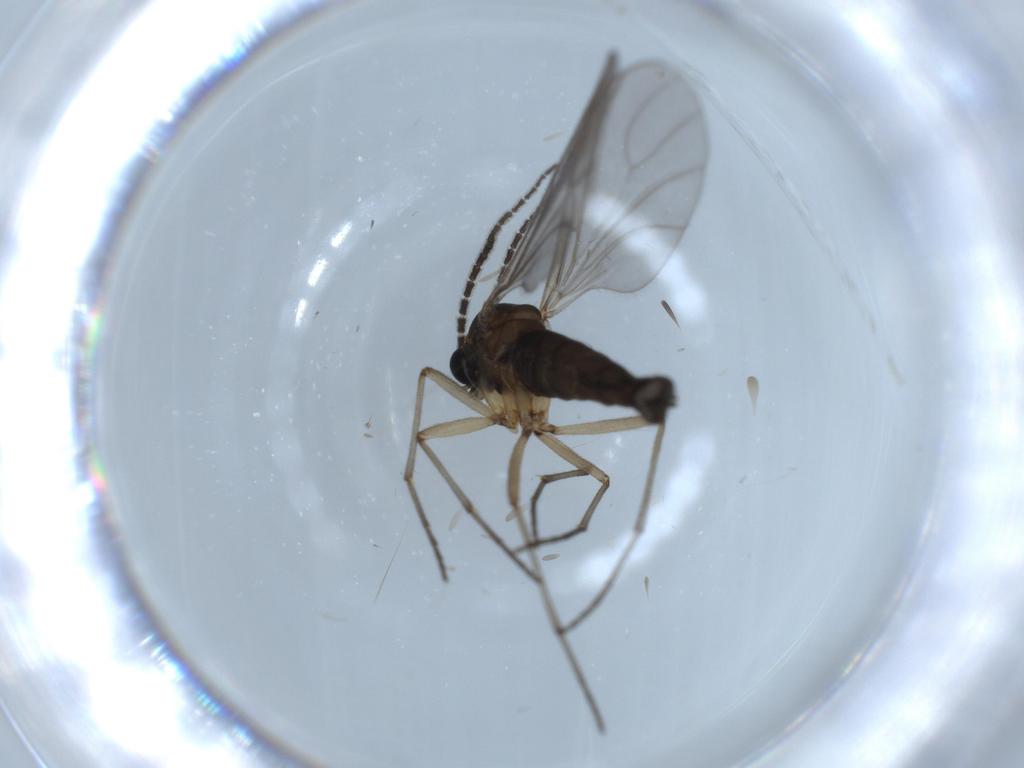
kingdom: Animalia
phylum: Arthropoda
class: Insecta
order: Diptera
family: Sciaridae
